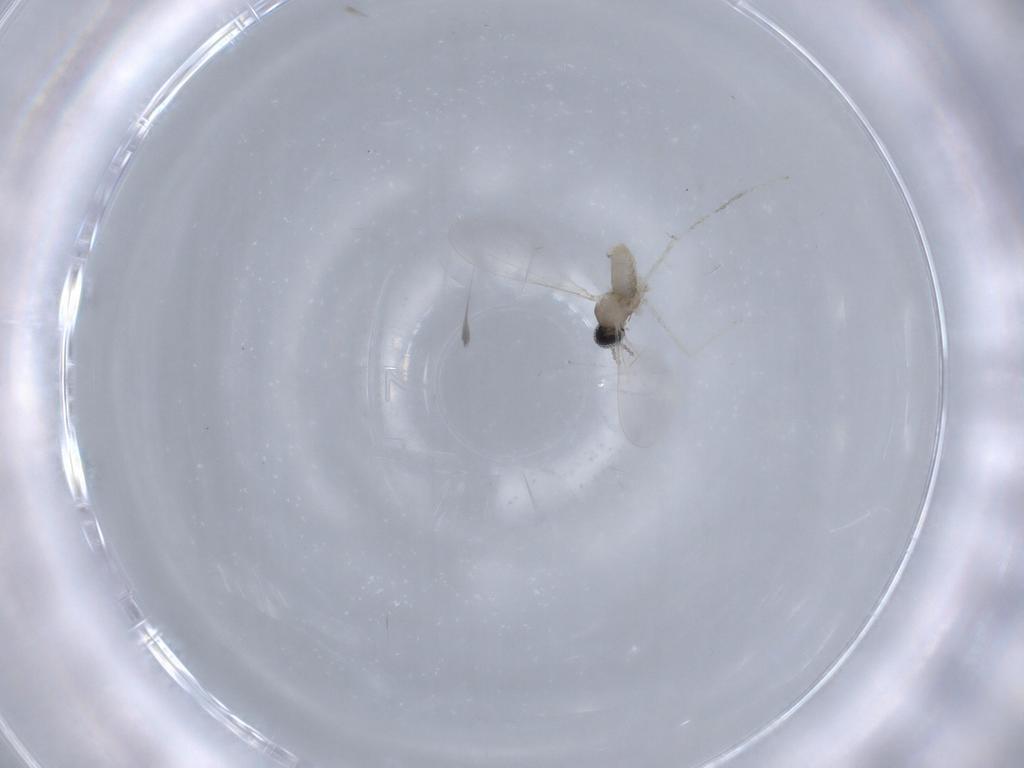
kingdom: Animalia
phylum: Arthropoda
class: Insecta
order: Diptera
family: Cecidomyiidae
